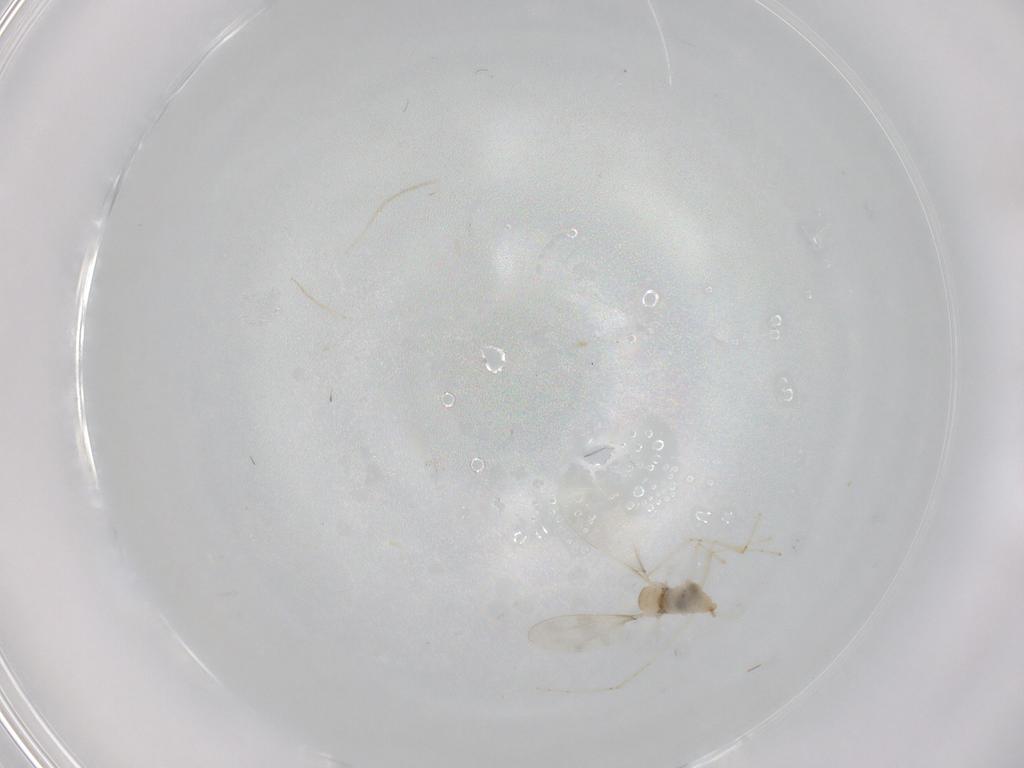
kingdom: Animalia
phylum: Arthropoda
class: Insecta
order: Diptera
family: Cecidomyiidae
